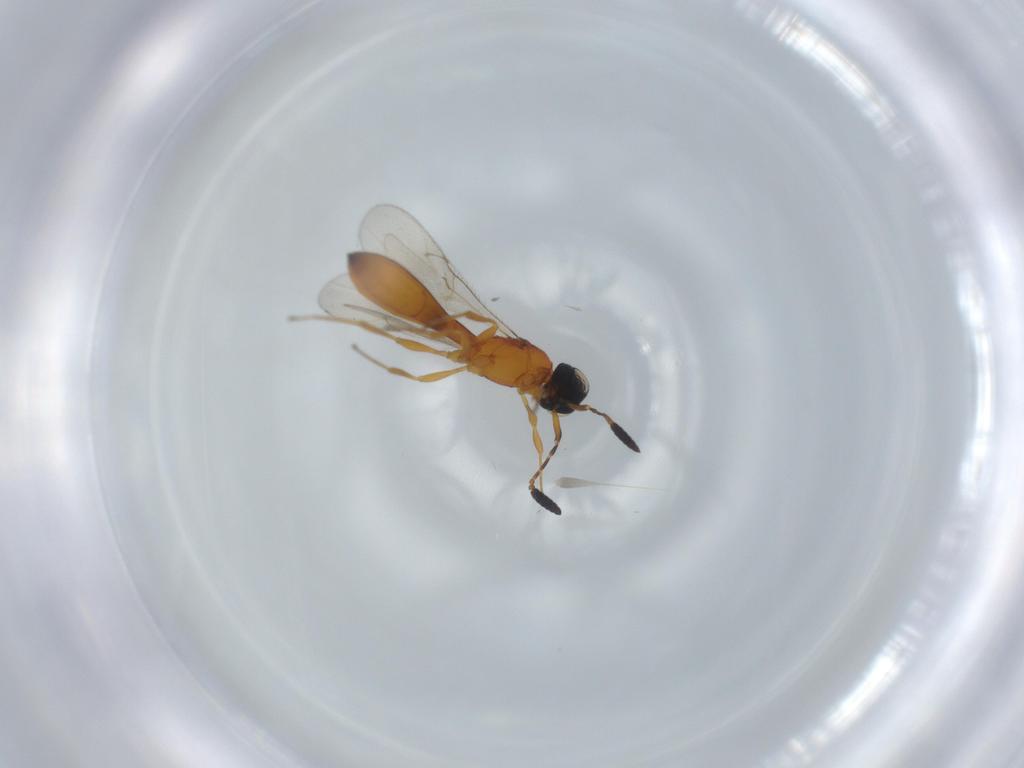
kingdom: Animalia
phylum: Arthropoda
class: Insecta
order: Hymenoptera
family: Scelionidae
